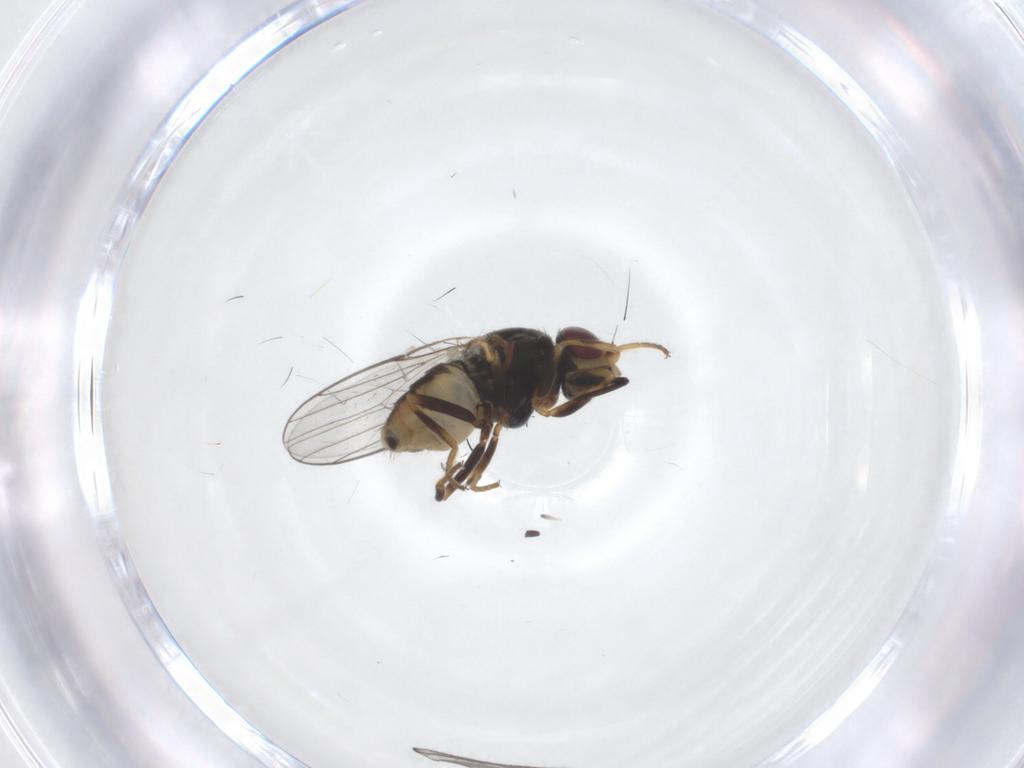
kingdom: Animalia
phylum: Arthropoda
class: Insecta
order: Diptera
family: Chloropidae
